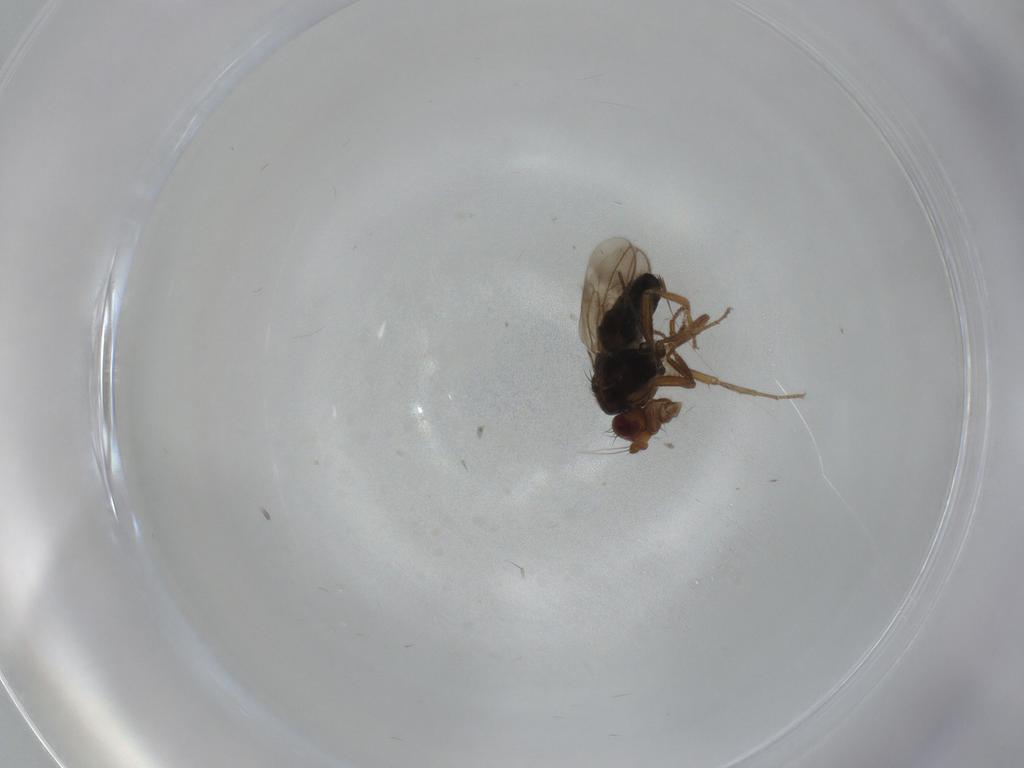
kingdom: Animalia
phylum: Arthropoda
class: Insecta
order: Diptera
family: Sphaeroceridae
